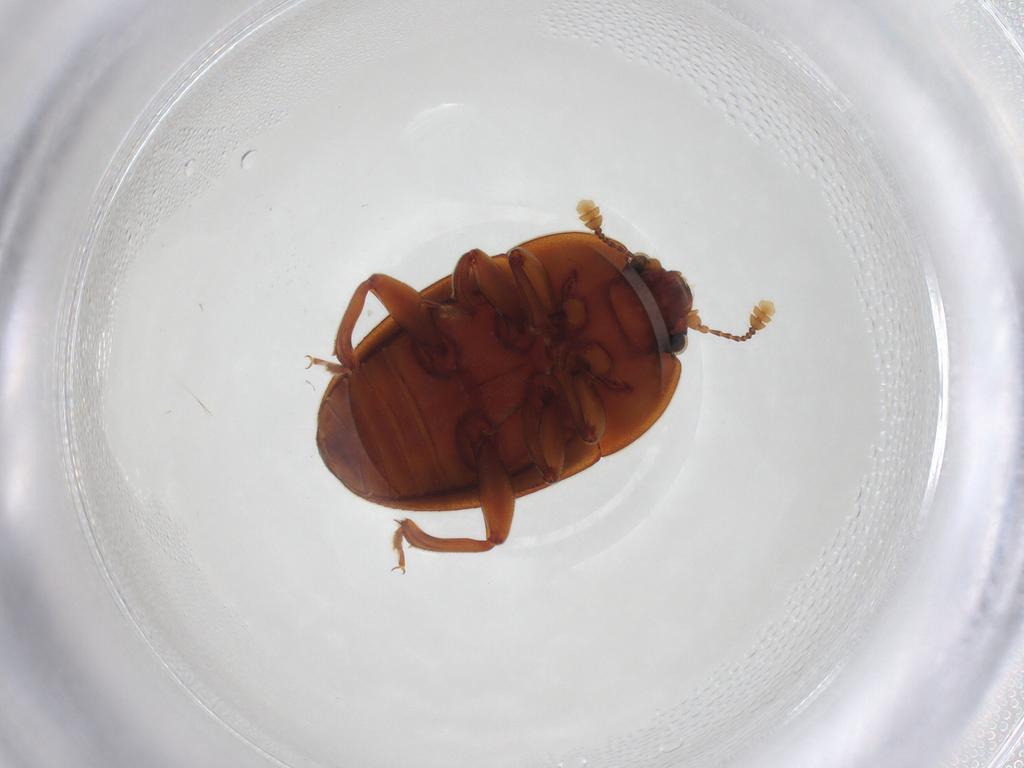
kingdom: Animalia
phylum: Arthropoda
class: Insecta
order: Coleoptera
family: Nitidulidae
